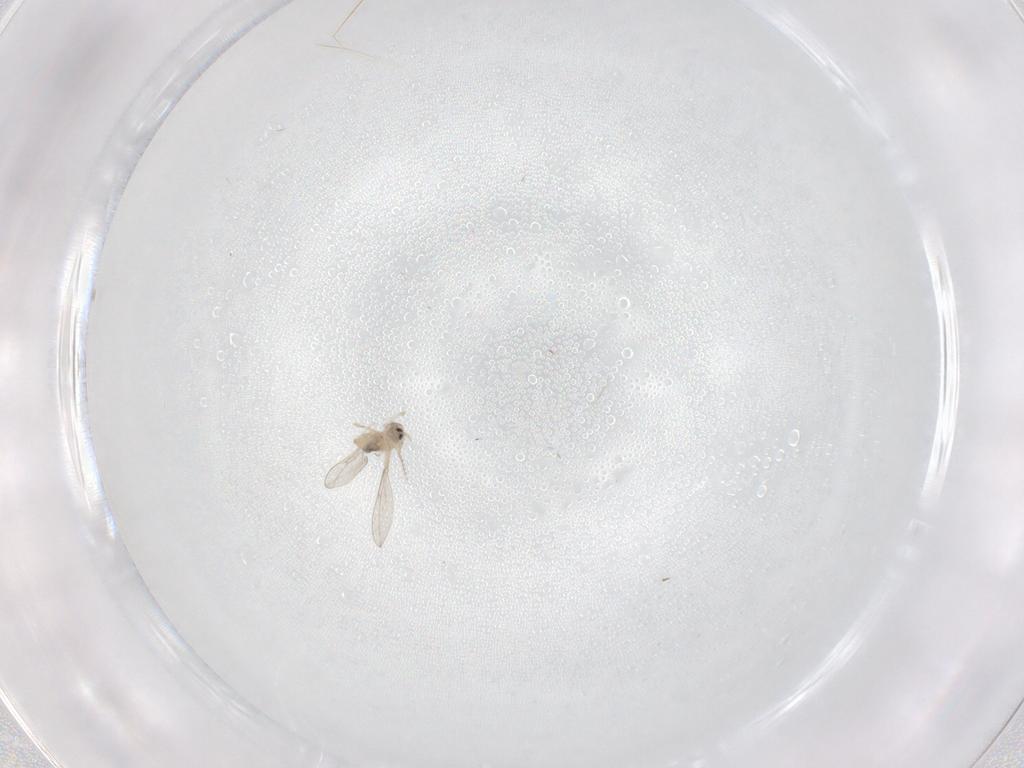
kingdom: Animalia
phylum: Arthropoda
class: Insecta
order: Diptera
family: Cecidomyiidae
